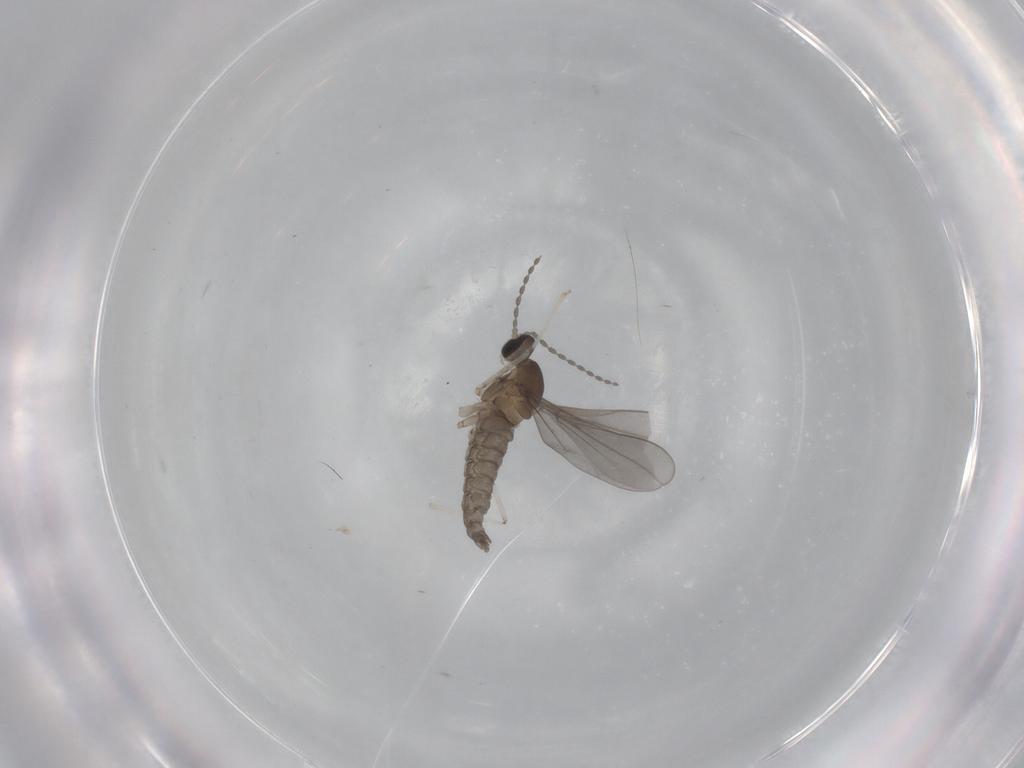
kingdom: Animalia
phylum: Arthropoda
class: Insecta
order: Diptera
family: Cecidomyiidae
